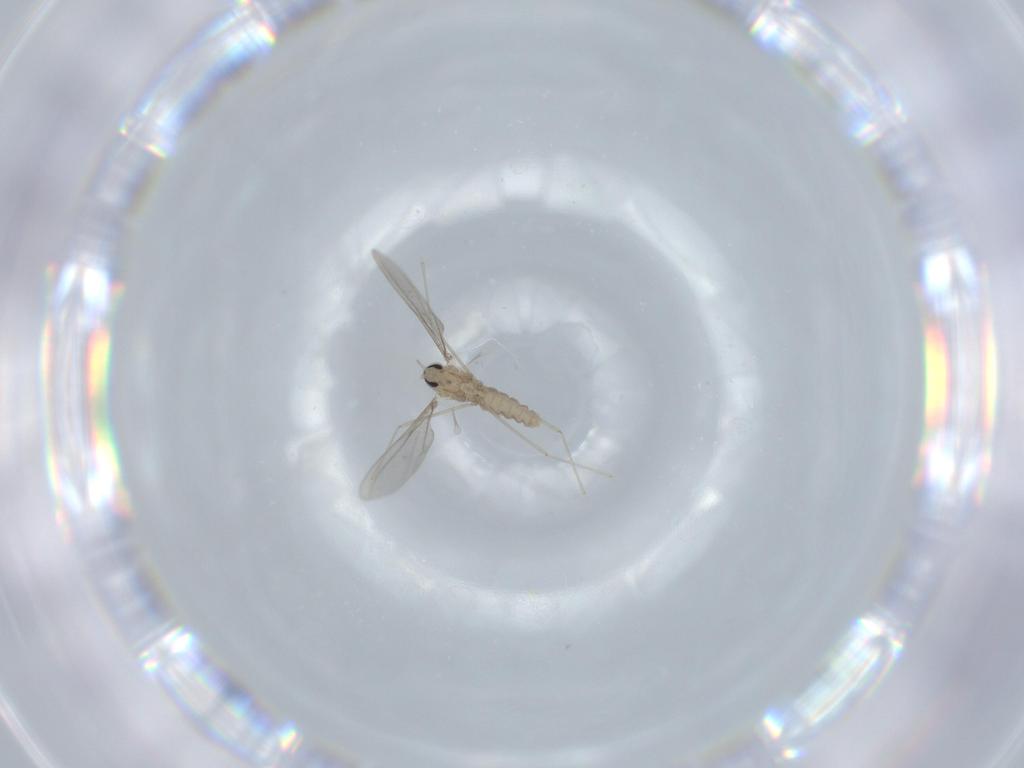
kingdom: Animalia
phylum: Arthropoda
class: Insecta
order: Diptera
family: Cecidomyiidae
